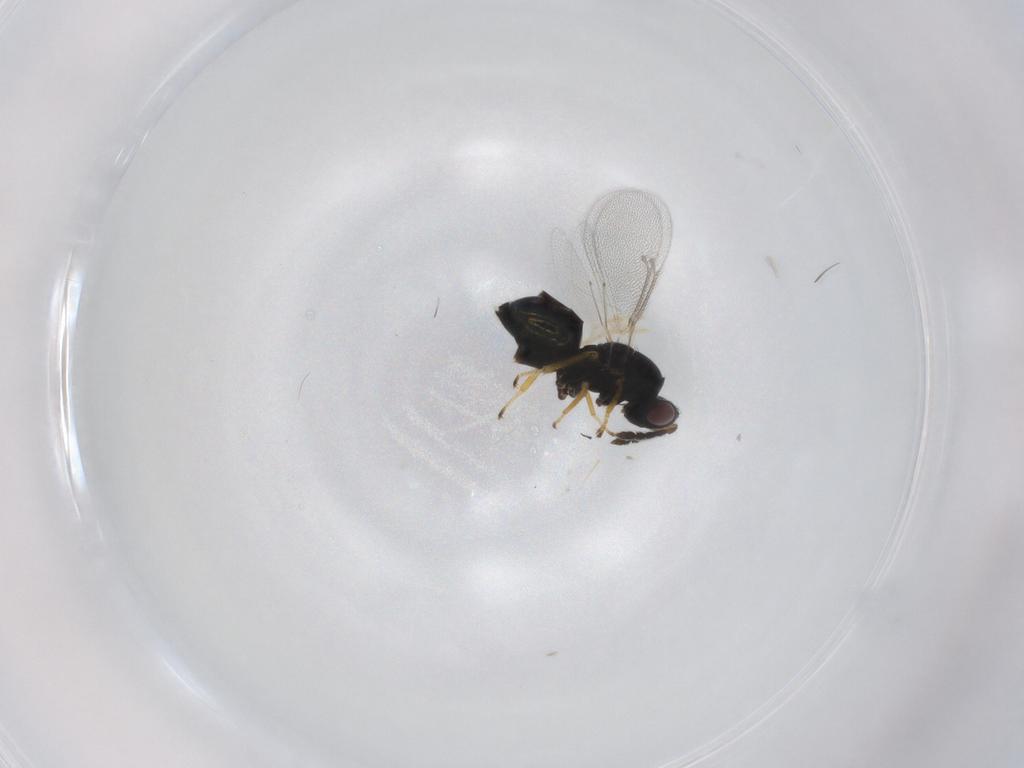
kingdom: Animalia
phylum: Arthropoda
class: Insecta
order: Hymenoptera
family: Eulophidae
